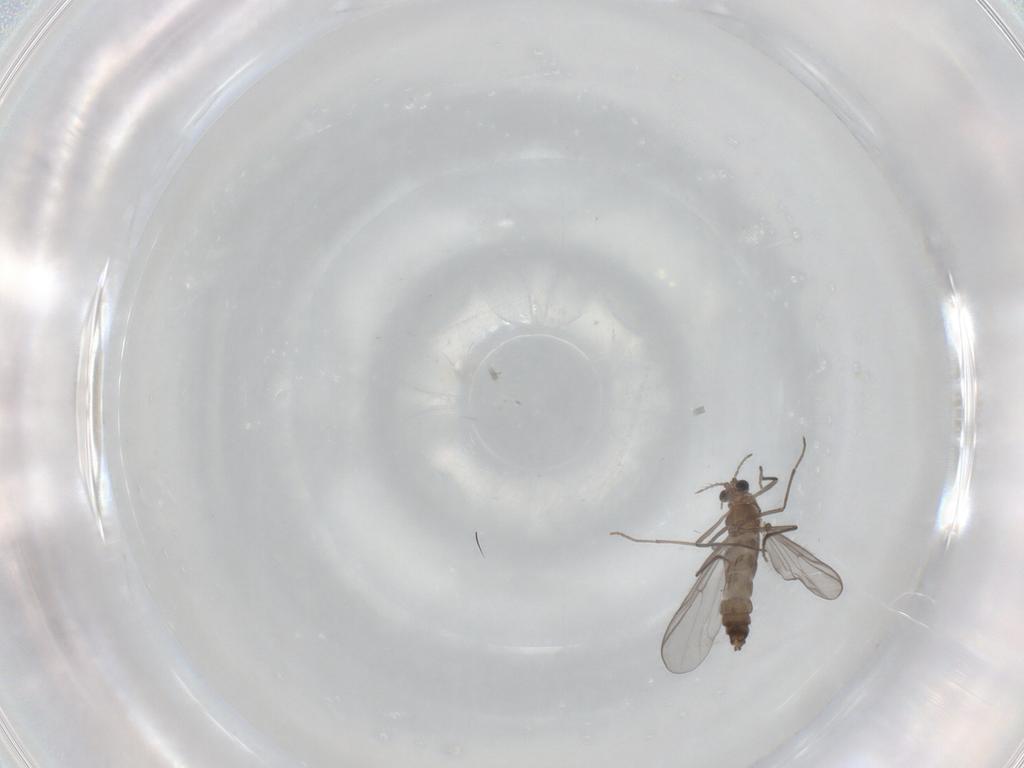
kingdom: Animalia
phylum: Arthropoda
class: Insecta
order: Diptera
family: Chironomidae
